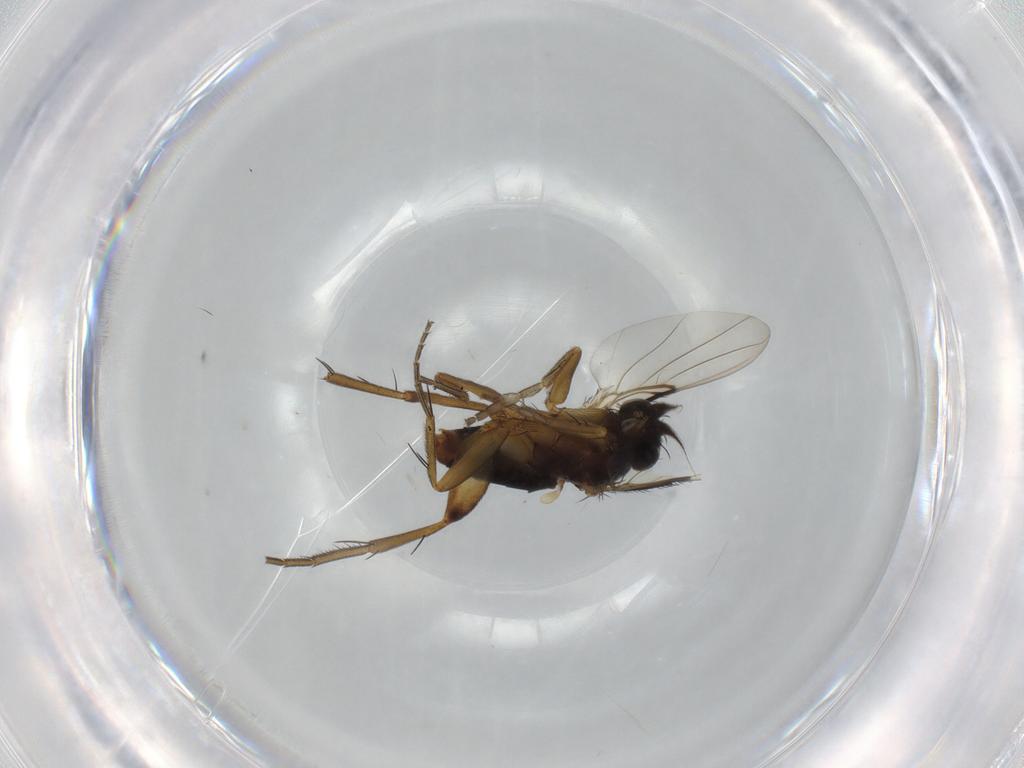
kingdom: Animalia
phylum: Arthropoda
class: Insecta
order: Diptera
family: Phoridae
